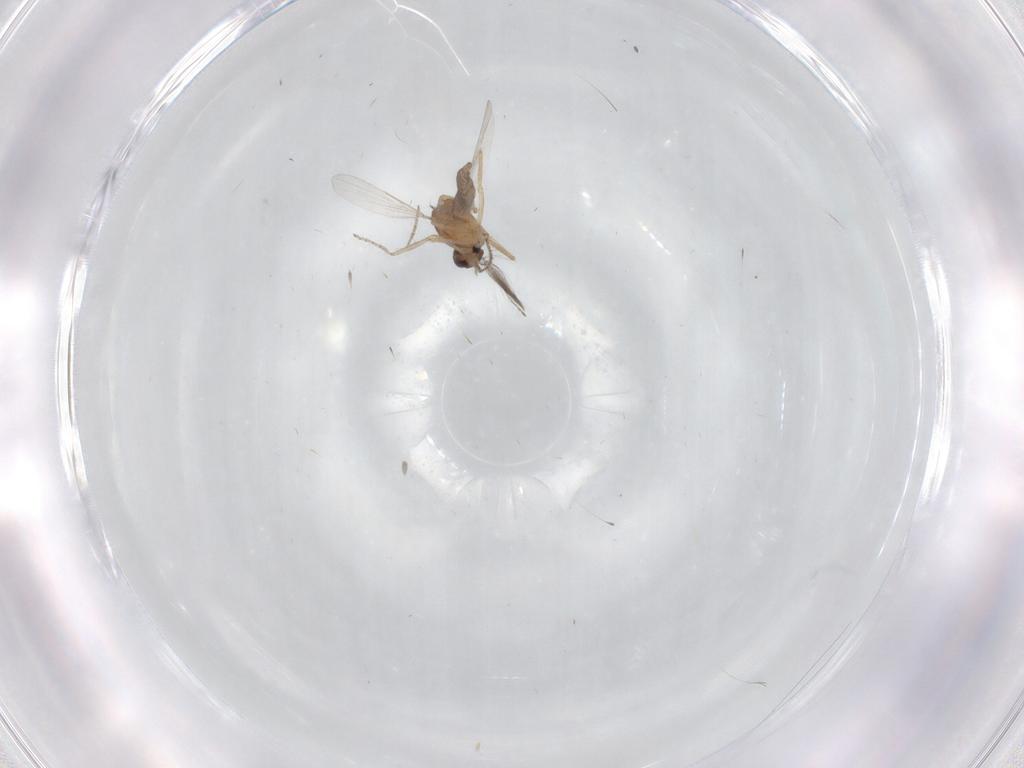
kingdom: Animalia
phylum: Arthropoda
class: Insecta
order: Diptera
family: Ceratopogonidae
